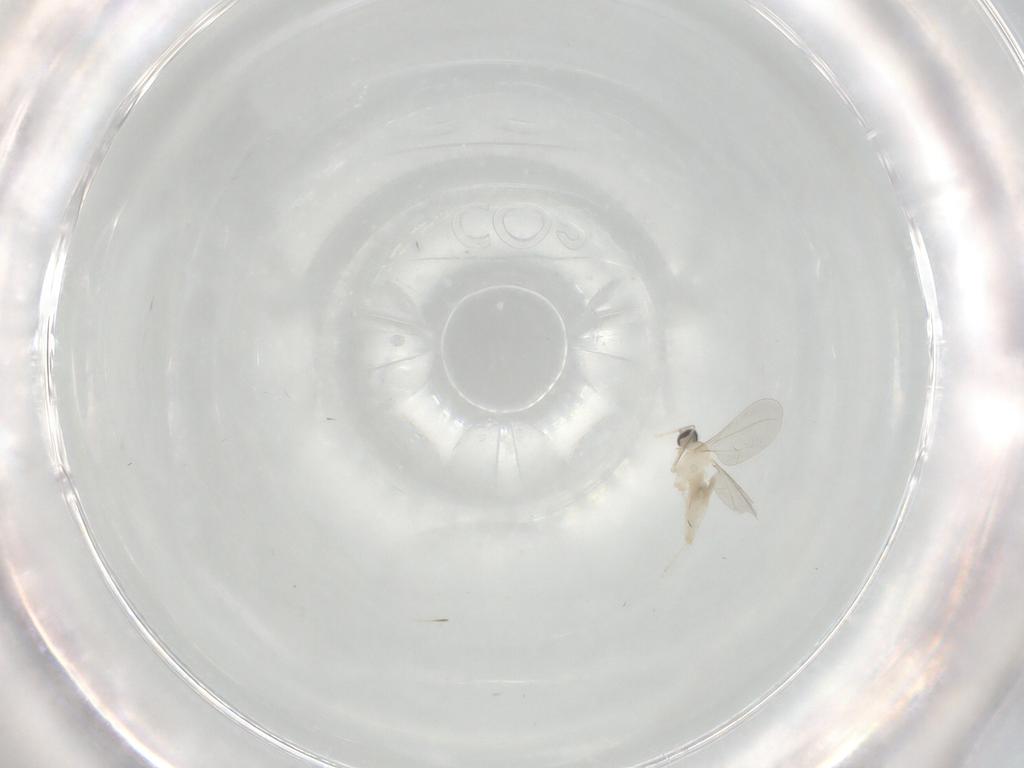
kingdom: Animalia
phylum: Arthropoda
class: Insecta
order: Diptera
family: Cecidomyiidae
